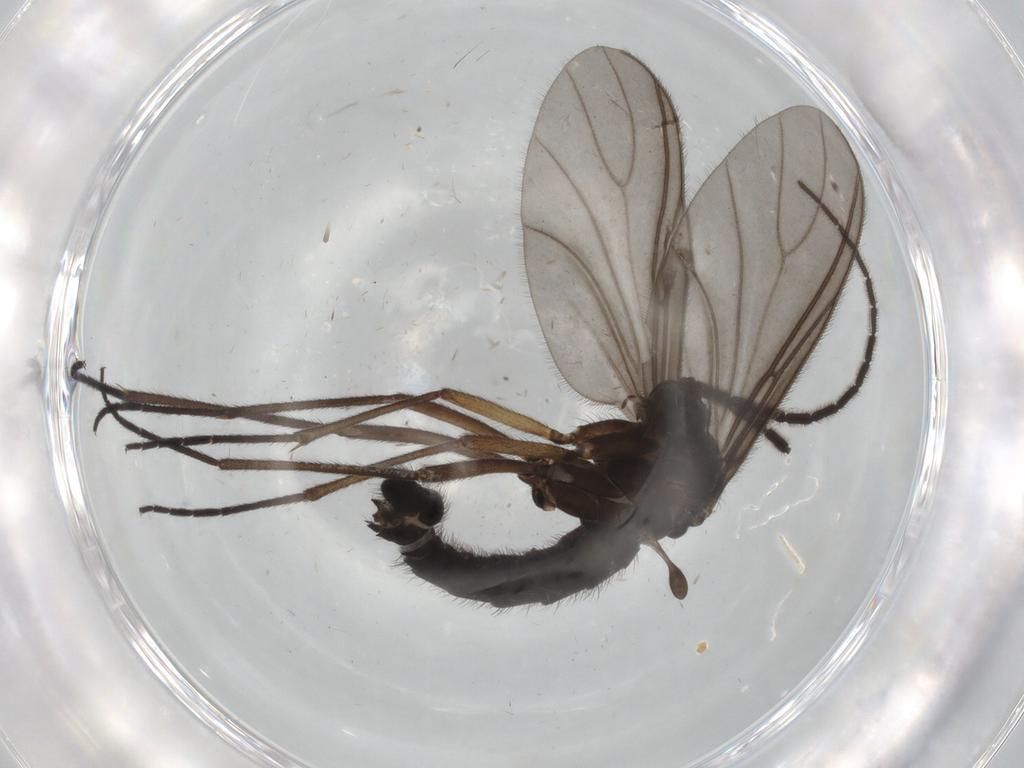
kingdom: Animalia
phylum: Arthropoda
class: Insecta
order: Diptera
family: Sciaridae
